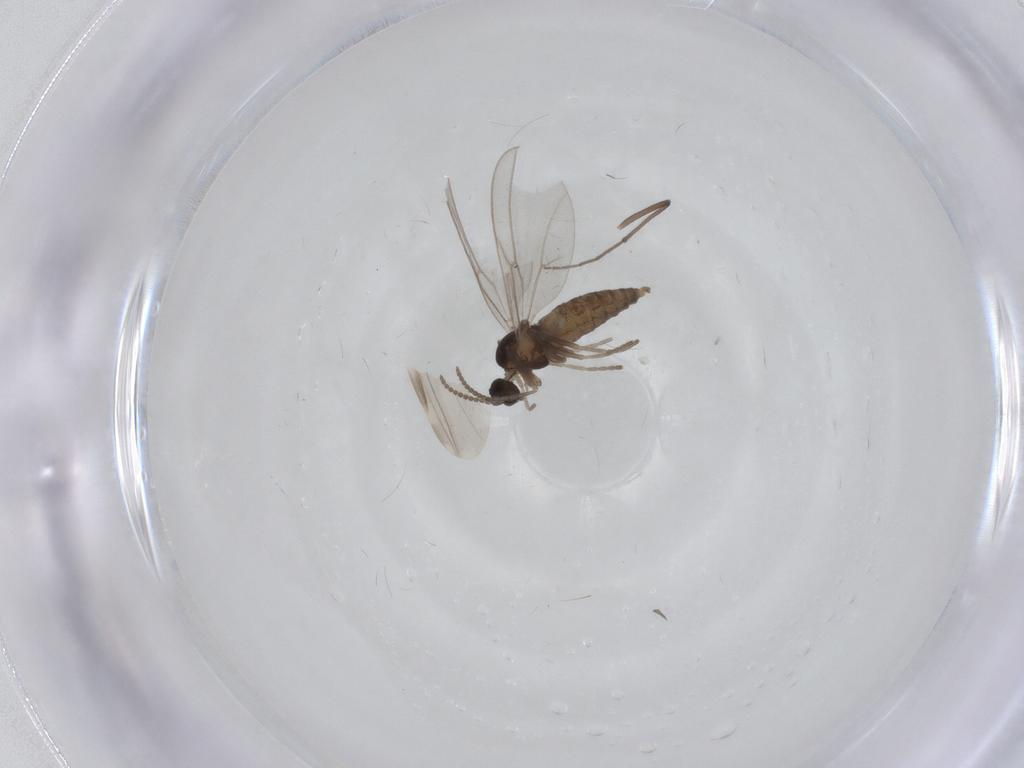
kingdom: Animalia
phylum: Arthropoda
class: Insecta
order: Diptera
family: Cecidomyiidae
